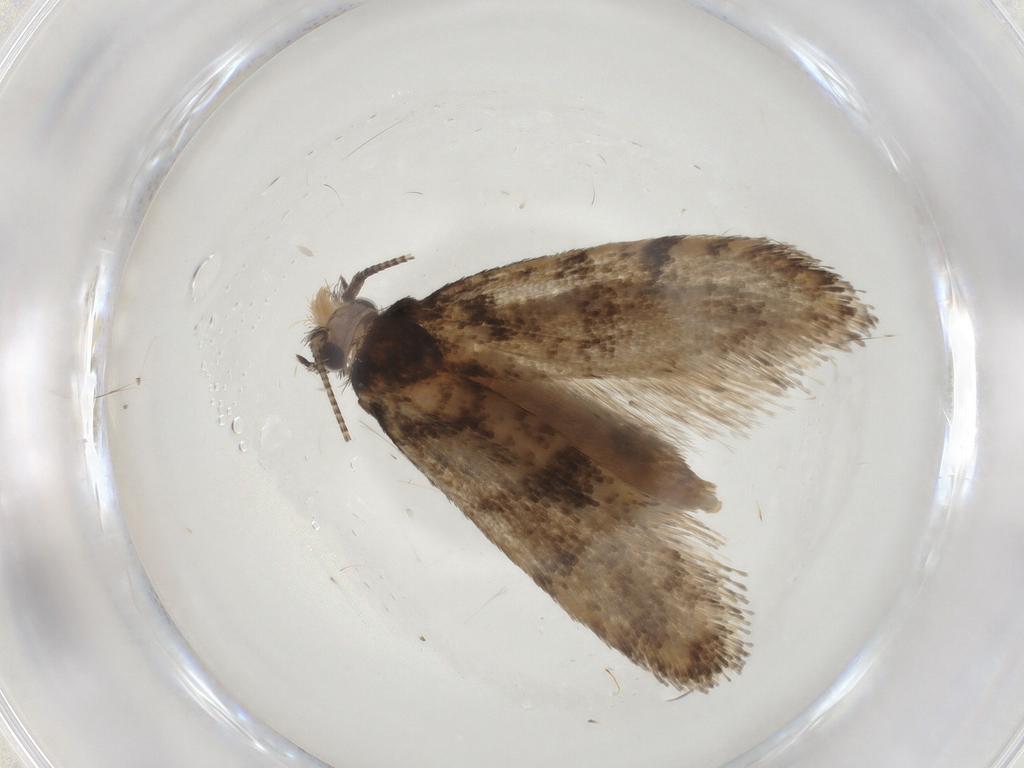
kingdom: Animalia
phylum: Arthropoda
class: Insecta
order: Lepidoptera
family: Tineidae
